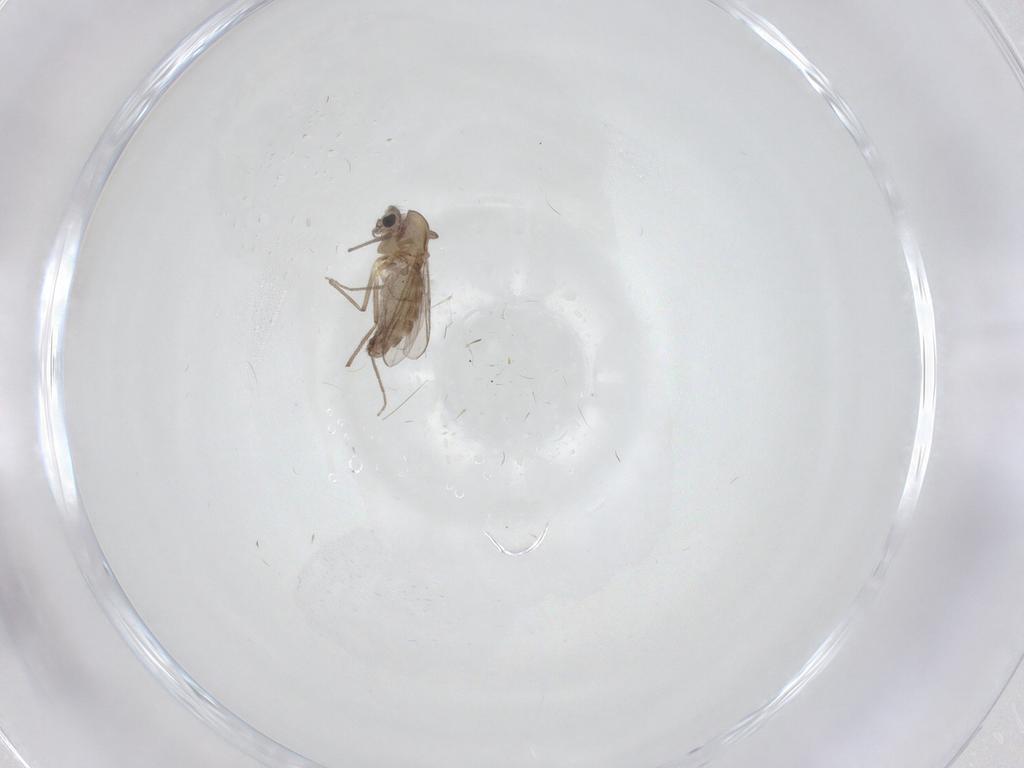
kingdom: Animalia
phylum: Arthropoda
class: Insecta
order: Diptera
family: Chironomidae
